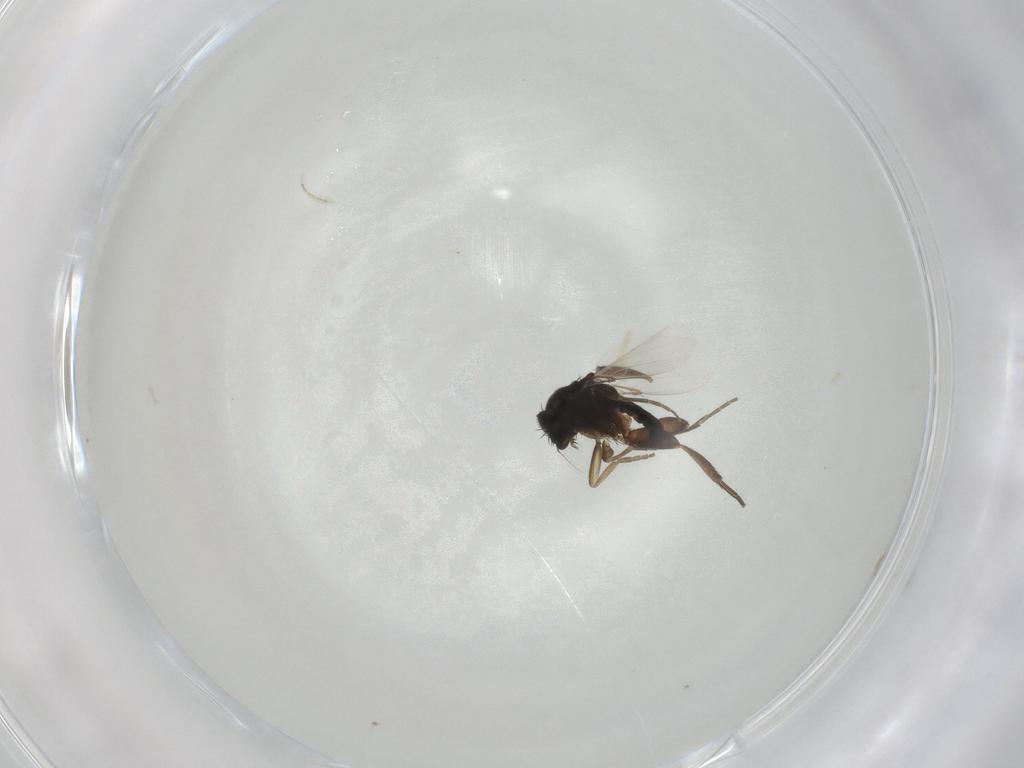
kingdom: Animalia
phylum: Arthropoda
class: Insecta
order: Diptera
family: Phoridae
